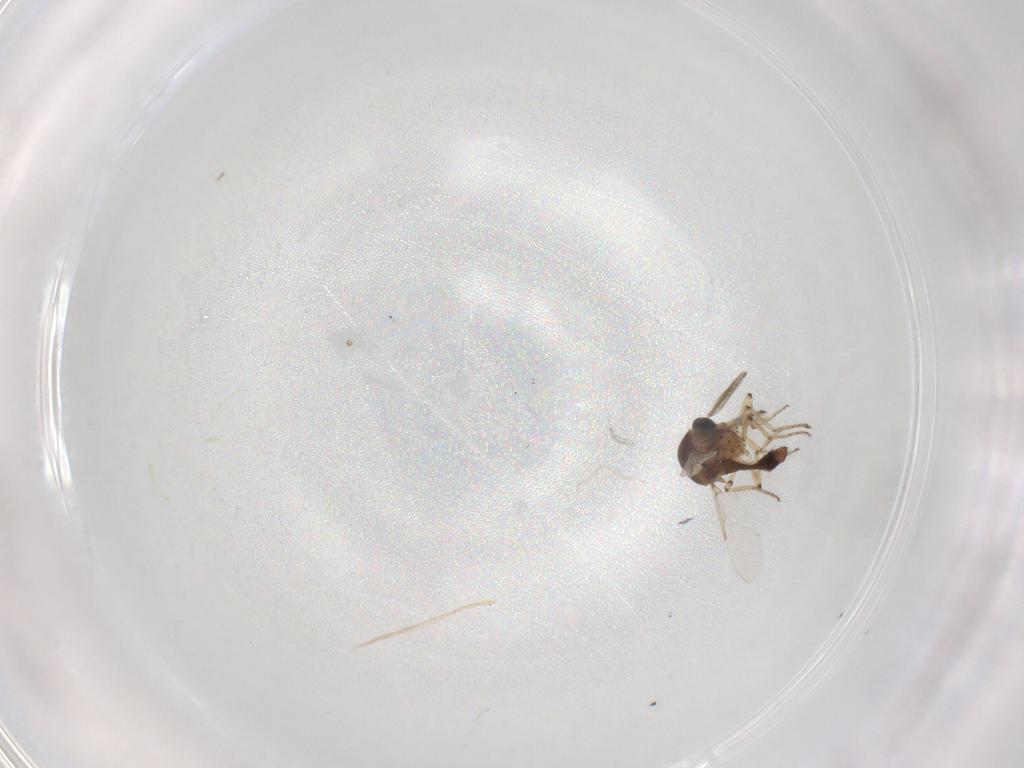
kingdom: Animalia
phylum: Arthropoda
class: Insecta
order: Diptera
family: Ceratopogonidae
